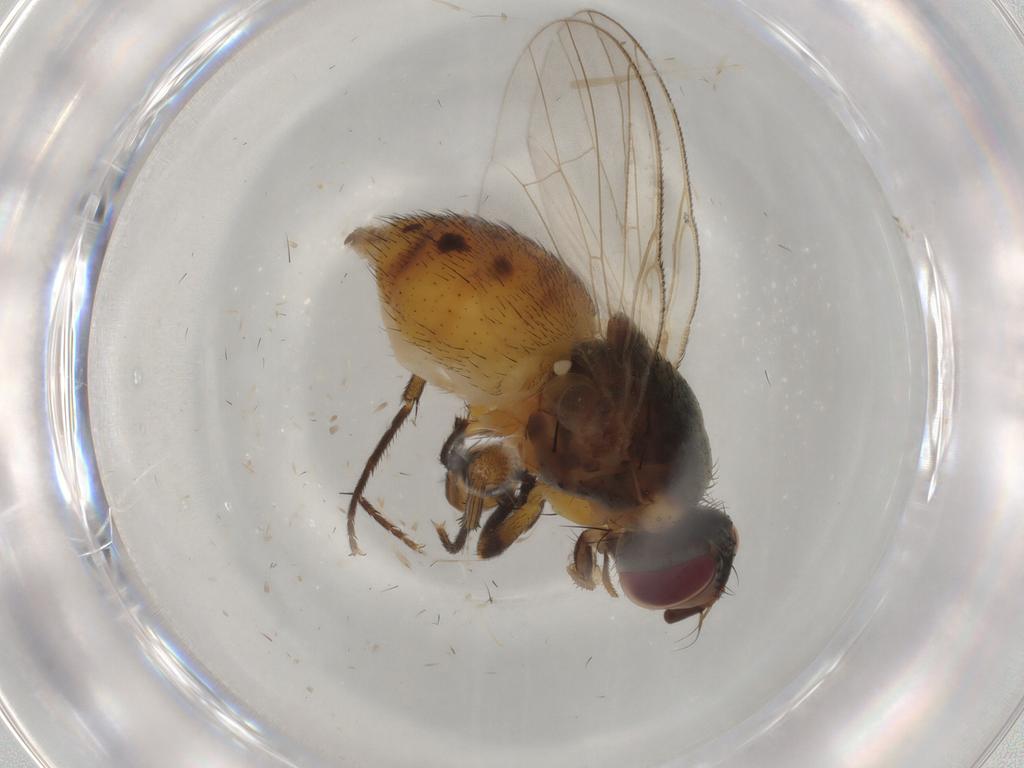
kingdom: Animalia
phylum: Arthropoda
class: Insecta
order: Diptera
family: Muscidae
